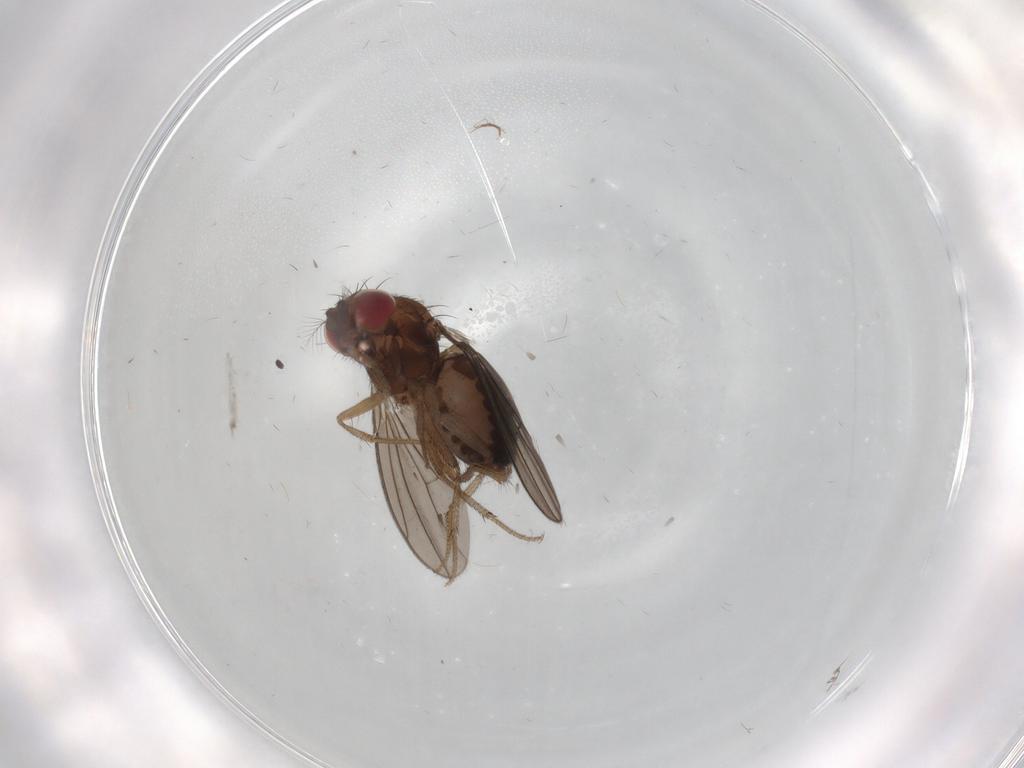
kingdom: Animalia
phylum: Arthropoda
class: Insecta
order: Diptera
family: Drosophilidae
